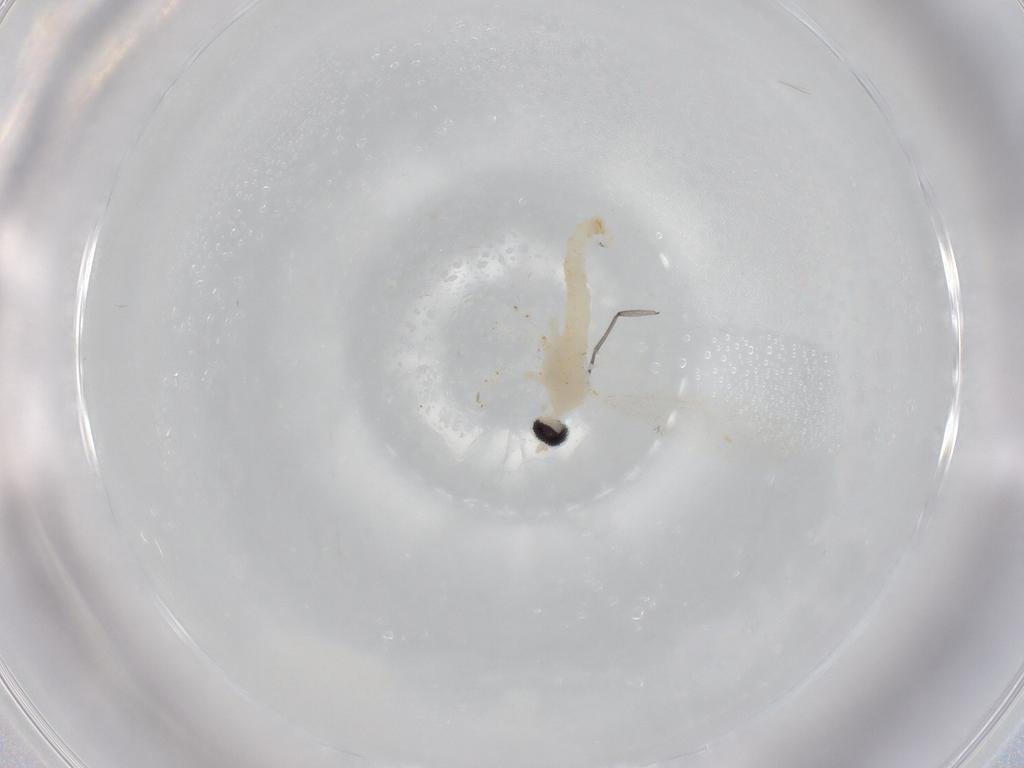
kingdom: Animalia
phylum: Arthropoda
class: Insecta
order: Diptera
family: Cecidomyiidae
